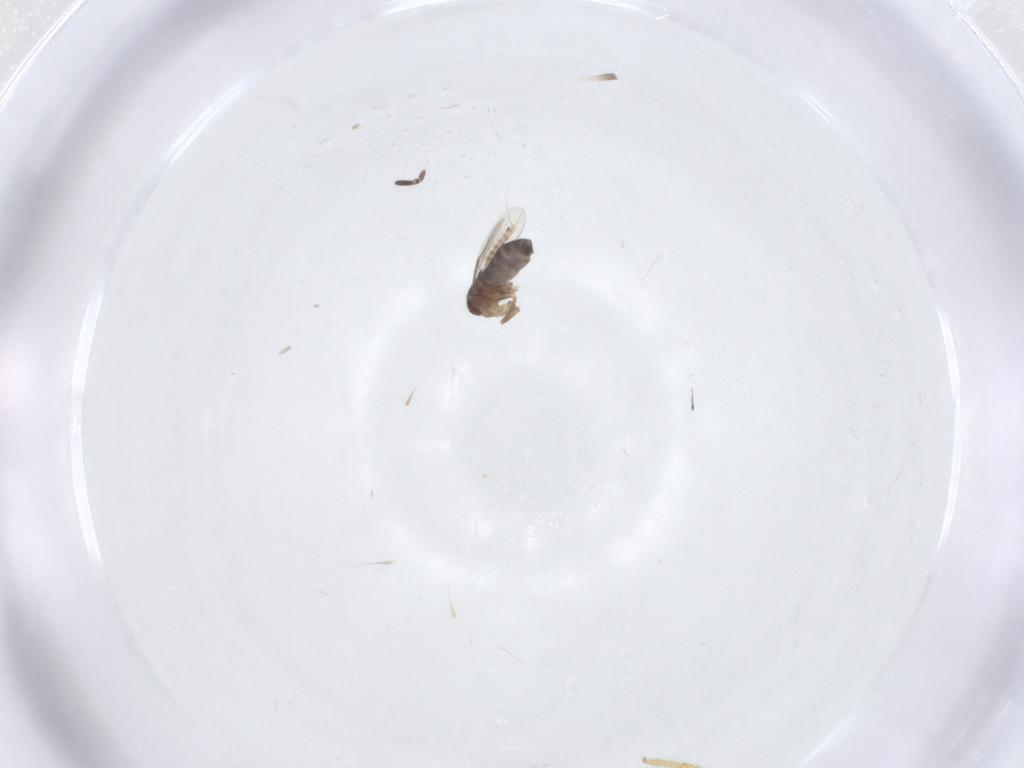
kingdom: Animalia
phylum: Arthropoda
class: Insecta
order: Diptera
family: Phoridae
